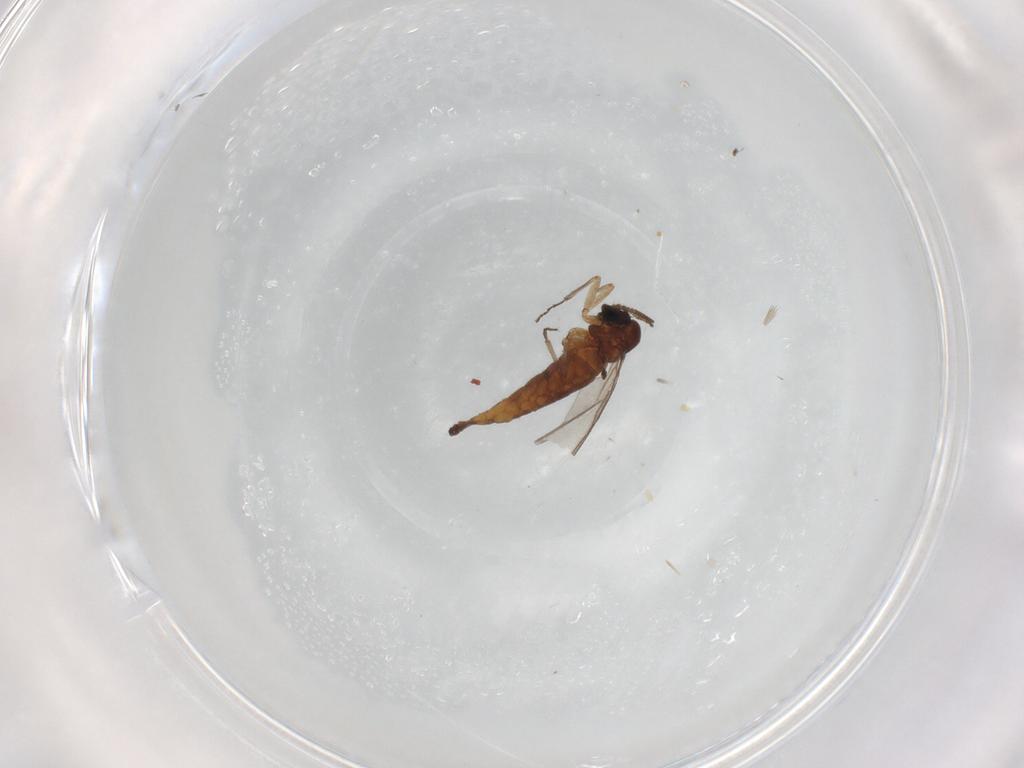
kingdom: Animalia
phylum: Arthropoda
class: Insecta
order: Diptera
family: Sciaridae
